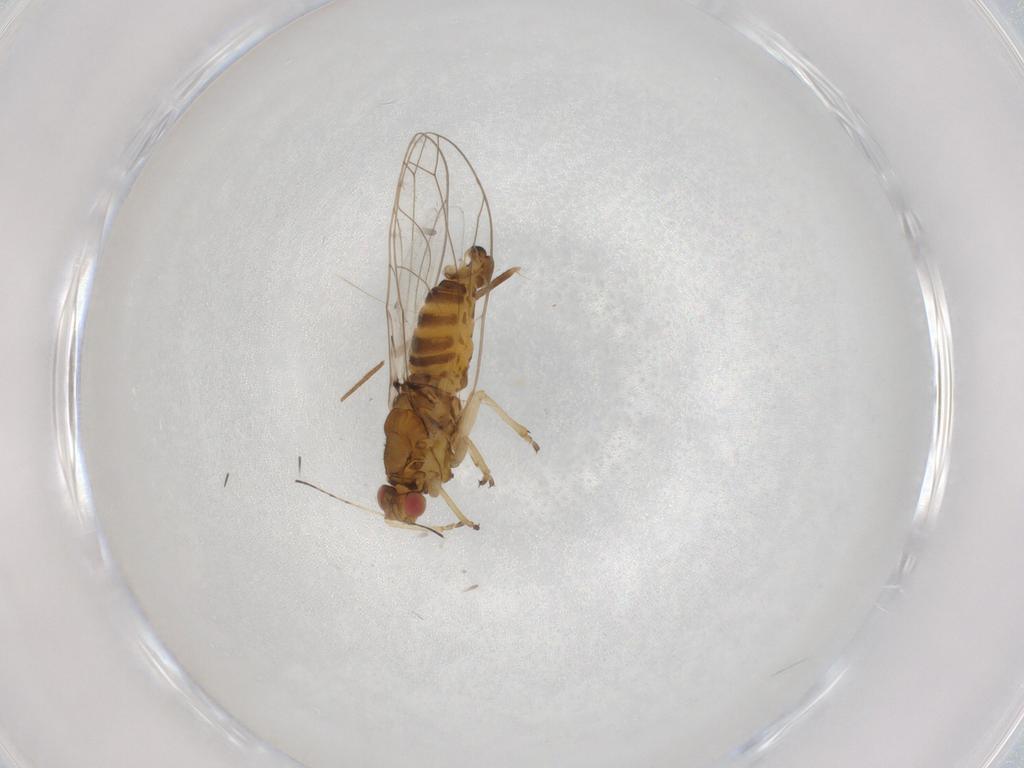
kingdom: Animalia
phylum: Arthropoda
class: Insecta
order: Hemiptera
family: Triozidae
